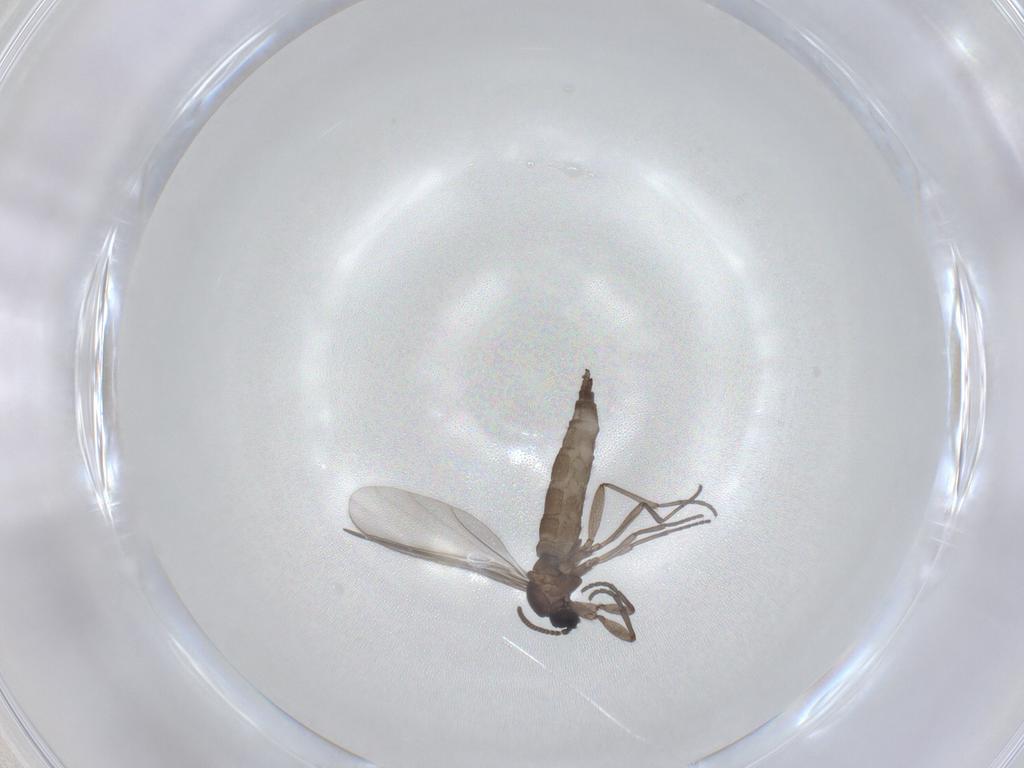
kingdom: Animalia
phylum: Arthropoda
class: Insecta
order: Diptera
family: Sciaridae
